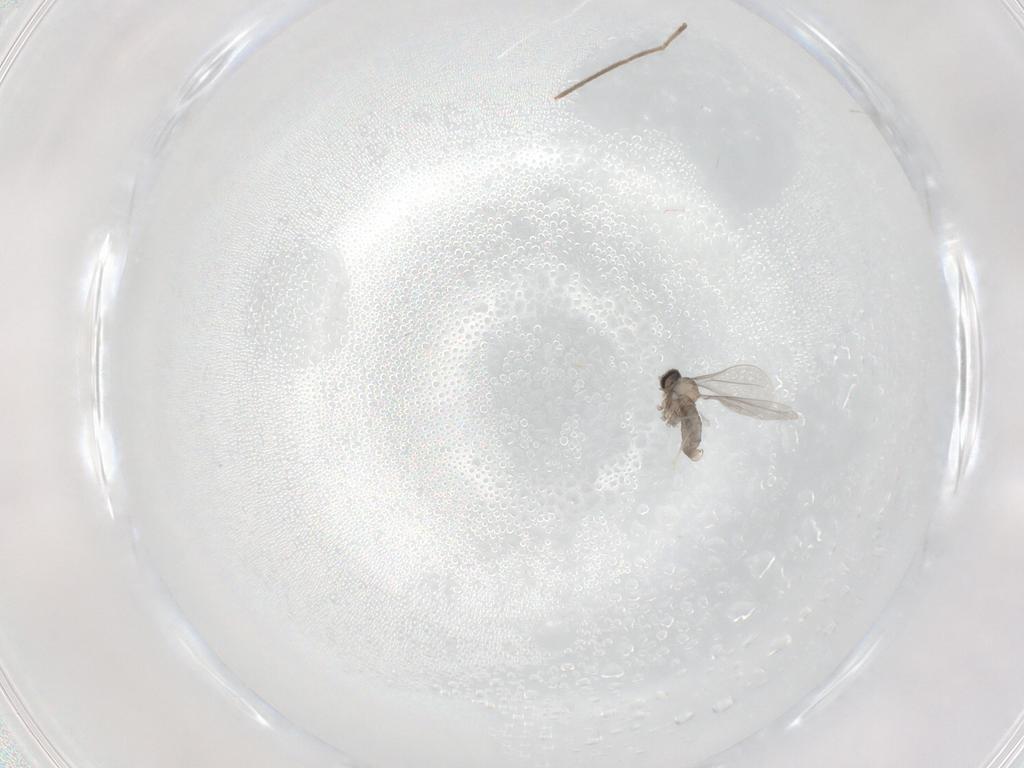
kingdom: Animalia
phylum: Arthropoda
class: Insecta
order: Diptera
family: Cecidomyiidae
